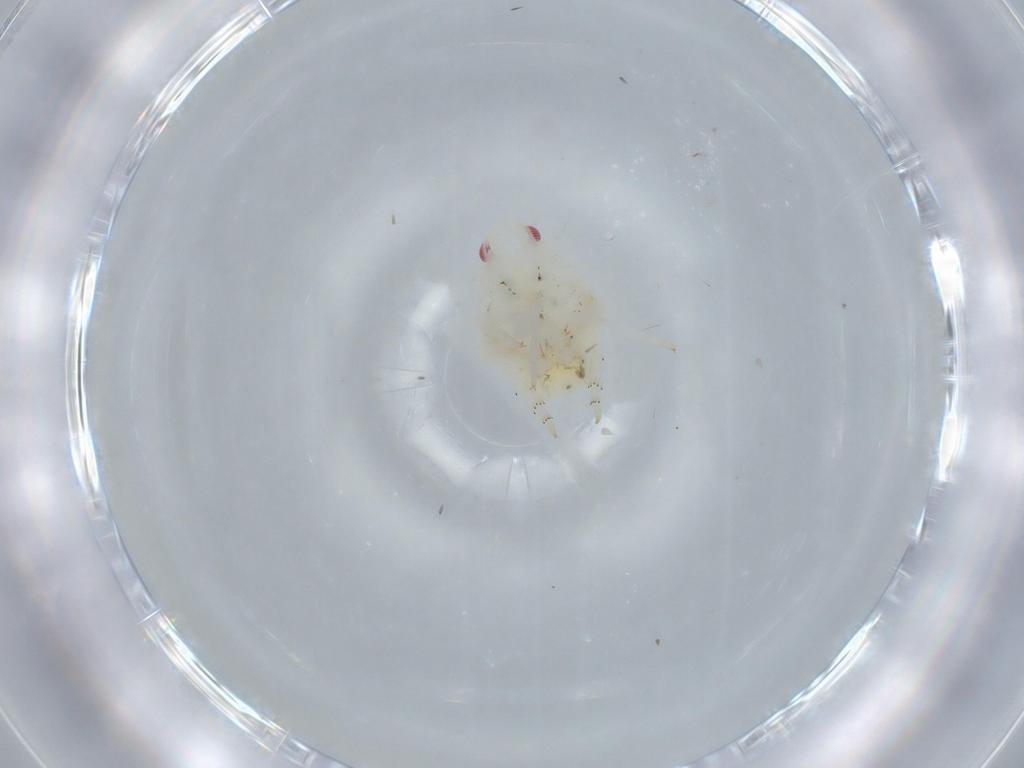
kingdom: Animalia
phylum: Arthropoda
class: Insecta
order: Hemiptera
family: Flatidae
